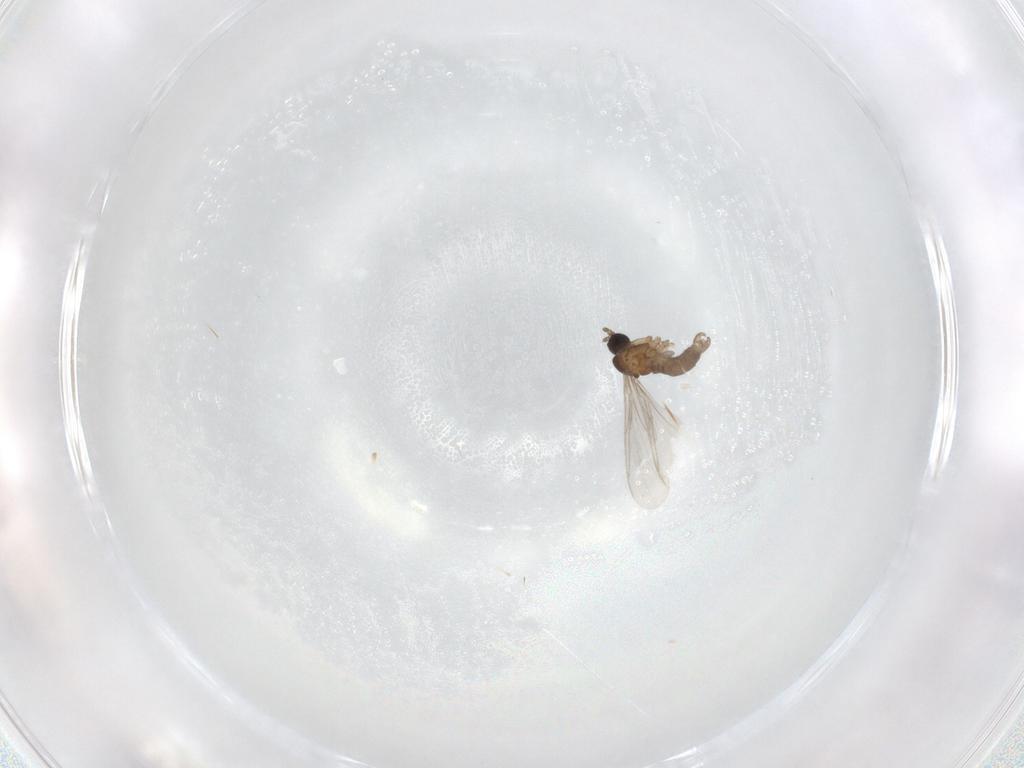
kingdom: Animalia
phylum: Arthropoda
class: Insecta
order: Diptera
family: Sciaridae
